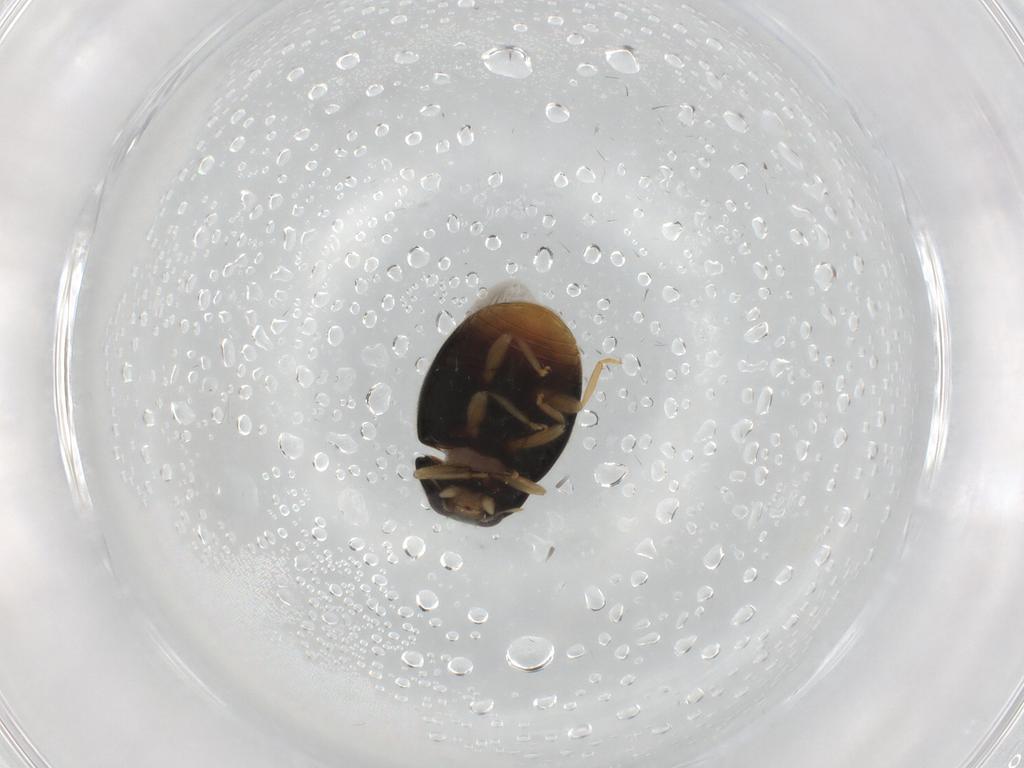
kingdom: Animalia
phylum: Arthropoda
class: Insecta
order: Coleoptera
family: Coccinellidae
